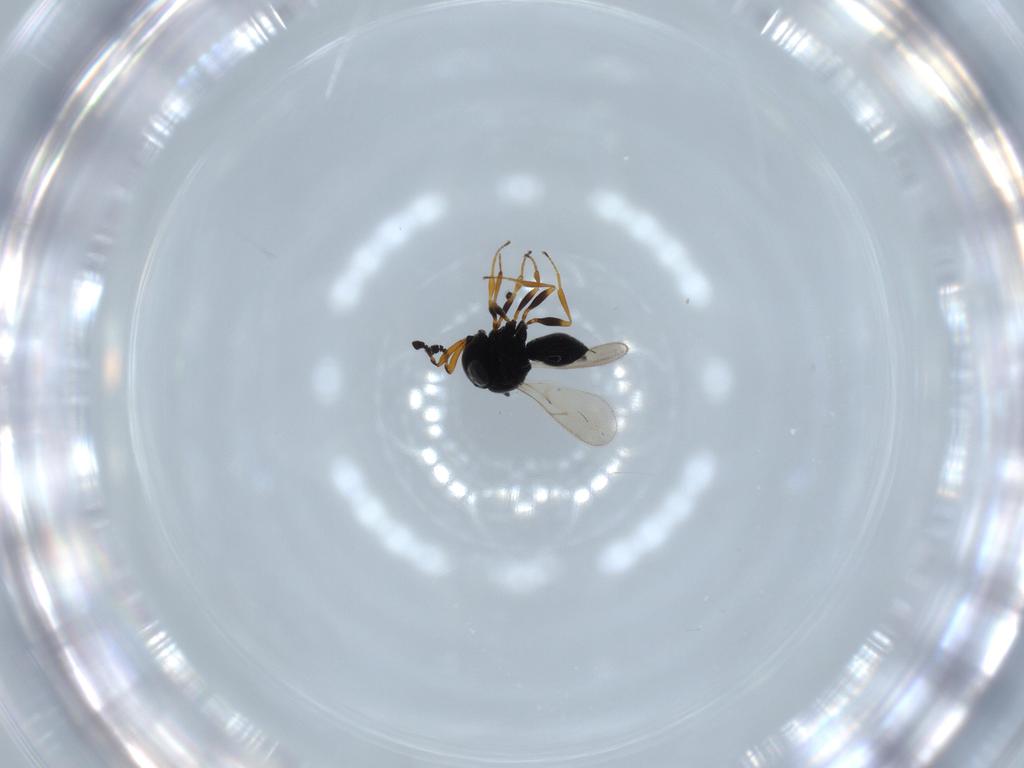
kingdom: Animalia
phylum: Arthropoda
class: Insecta
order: Hymenoptera
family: Scelionidae
